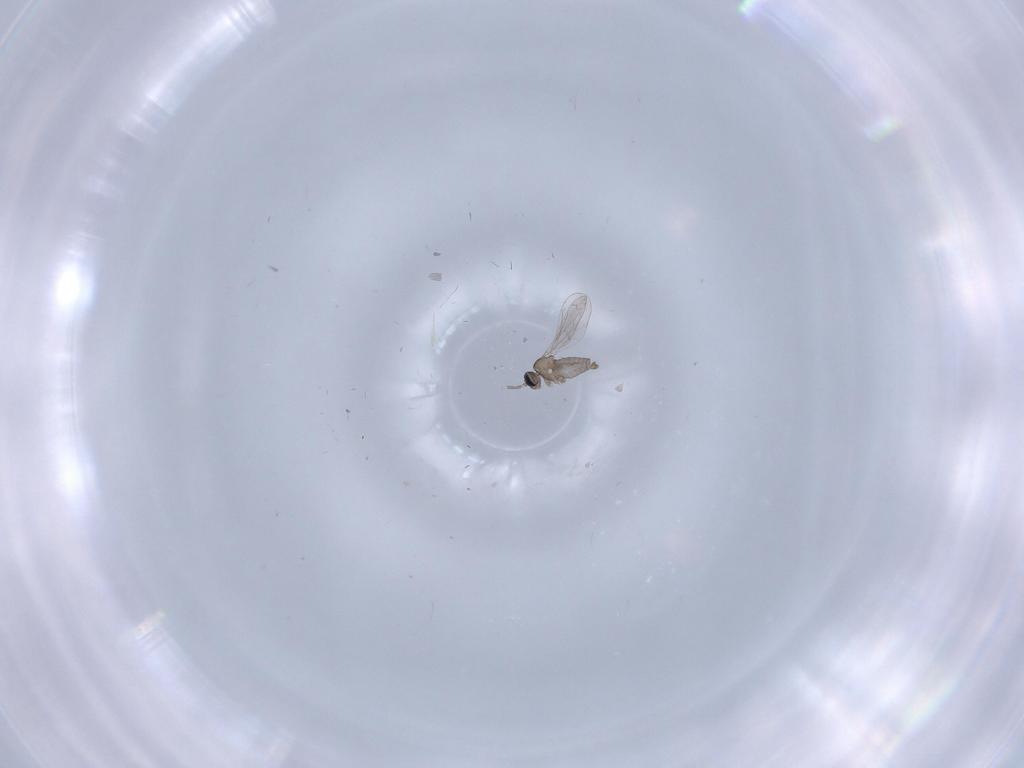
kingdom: Animalia
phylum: Arthropoda
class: Insecta
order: Diptera
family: Cecidomyiidae
